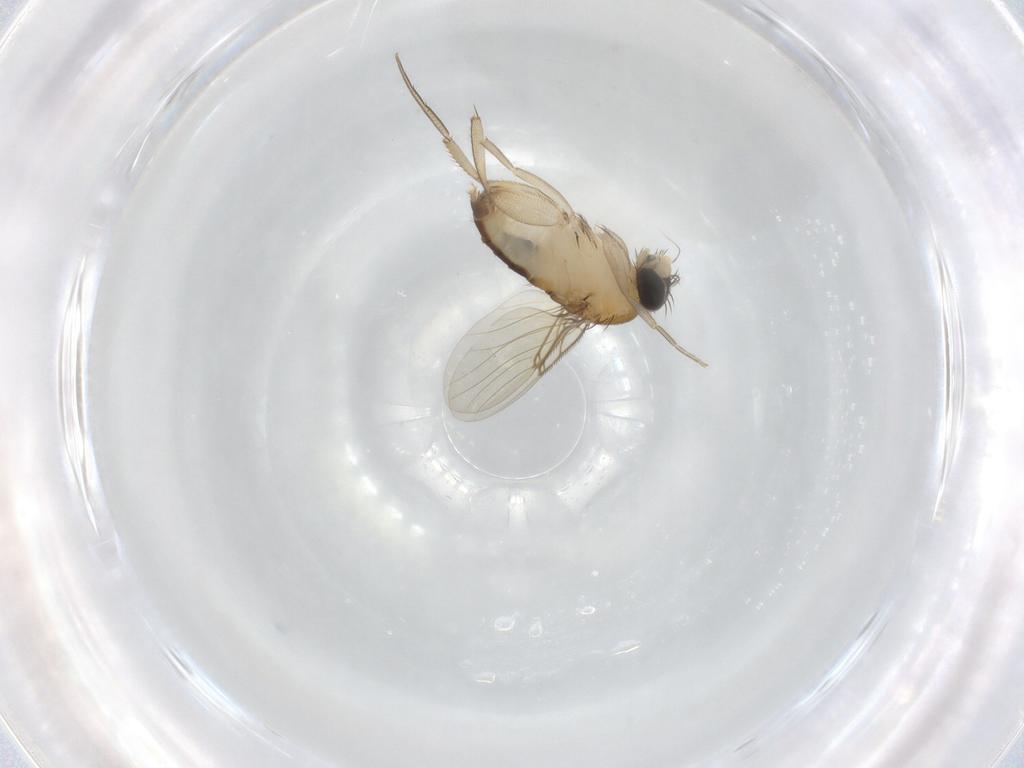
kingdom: Animalia
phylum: Arthropoda
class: Insecta
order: Diptera
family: Phoridae
